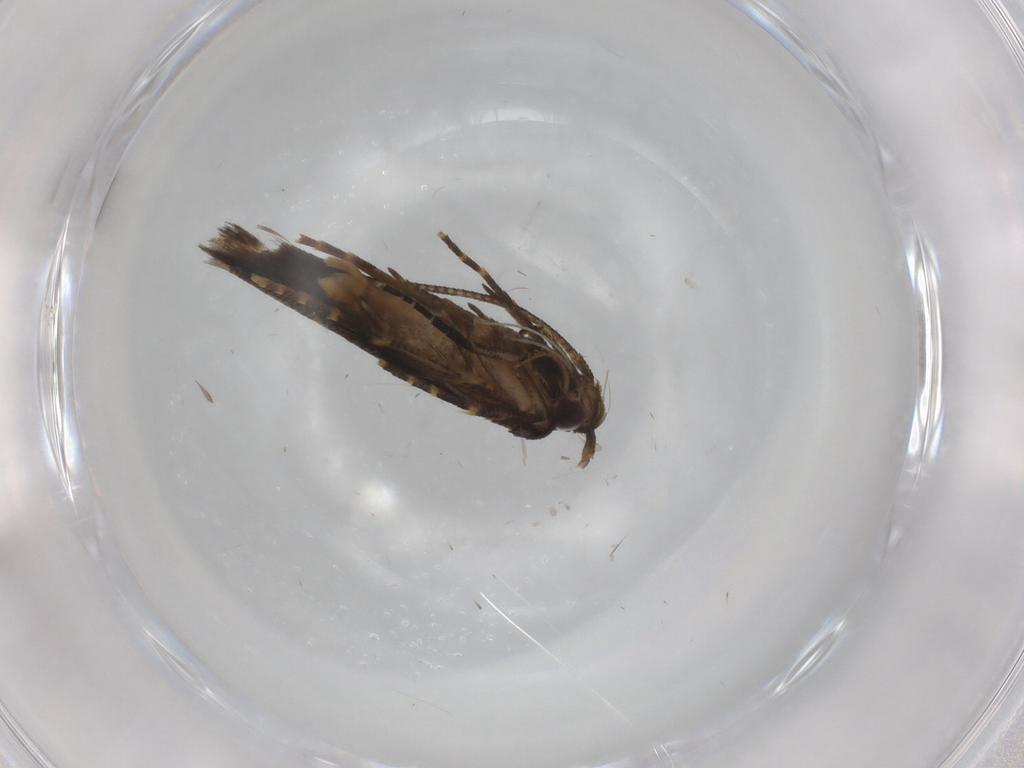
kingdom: Animalia
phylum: Arthropoda
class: Insecta
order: Lepidoptera
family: Cosmopterigidae
